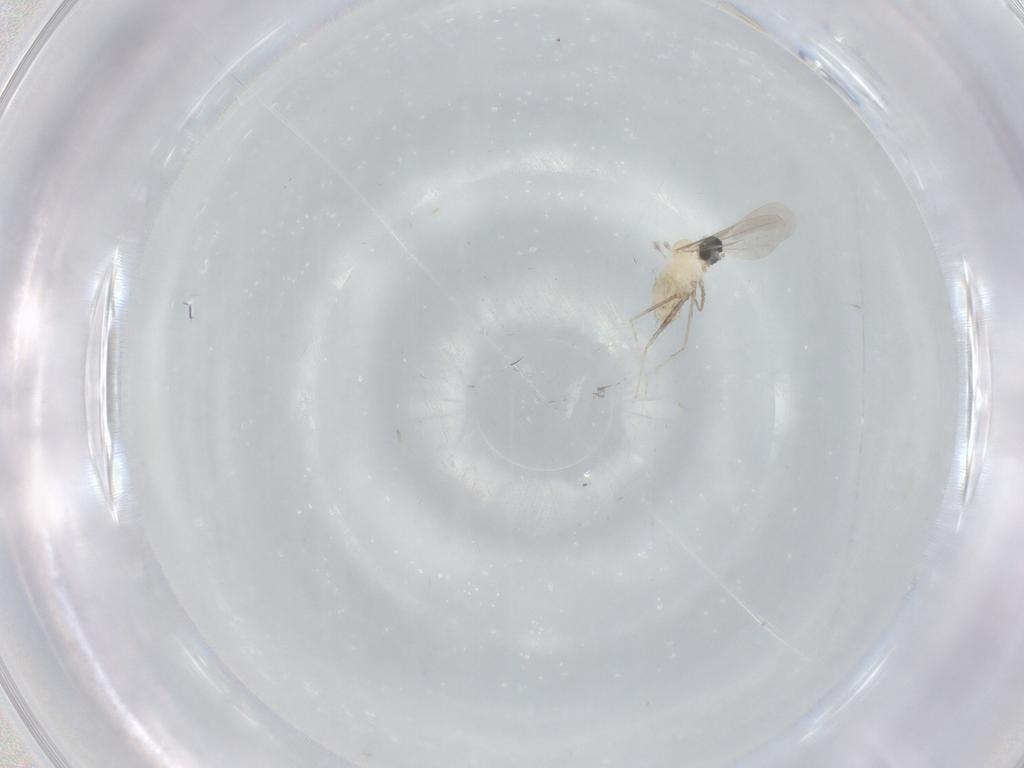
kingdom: Animalia
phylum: Arthropoda
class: Insecta
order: Diptera
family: Cecidomyiidae
